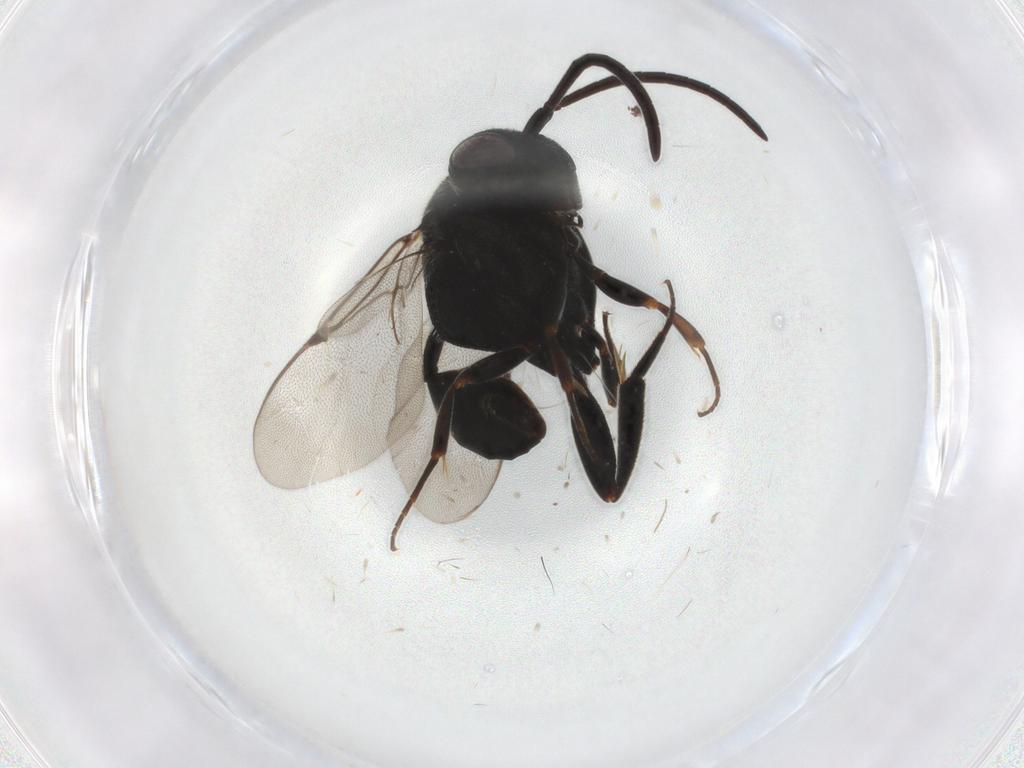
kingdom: Animalia
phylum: Arthropoda
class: Insecta
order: Hymenoptera
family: Evaniidae
